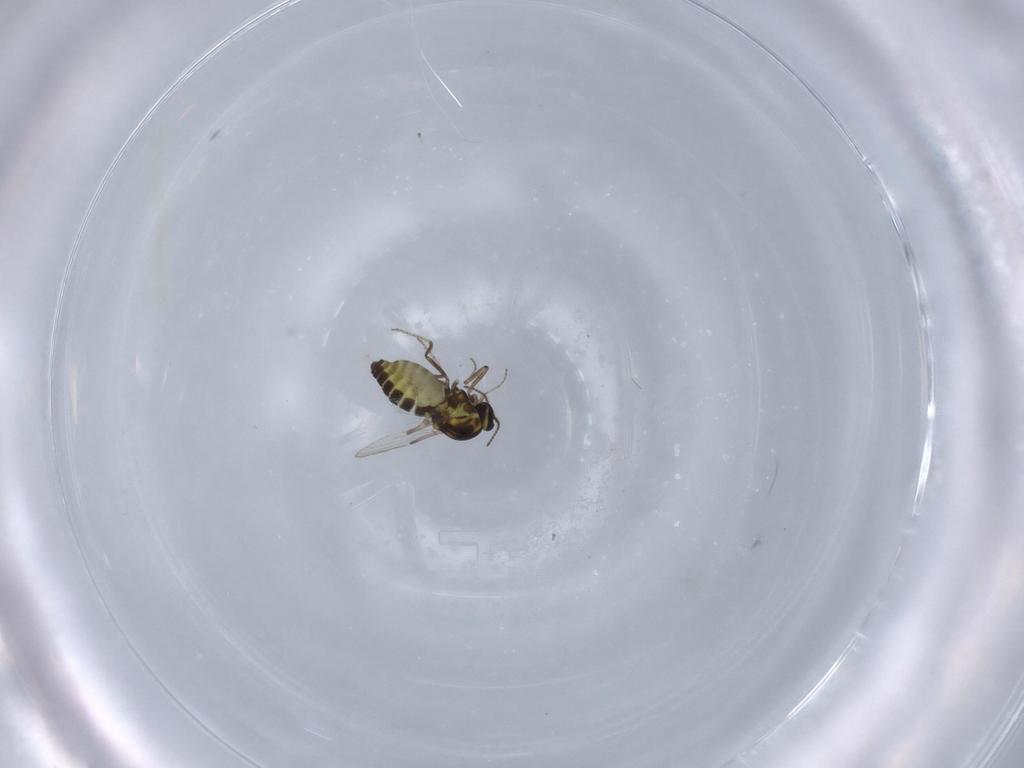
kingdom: Animalia
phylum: Arthropoda
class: Insecta
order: Diptera
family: Ceratopogonidae
